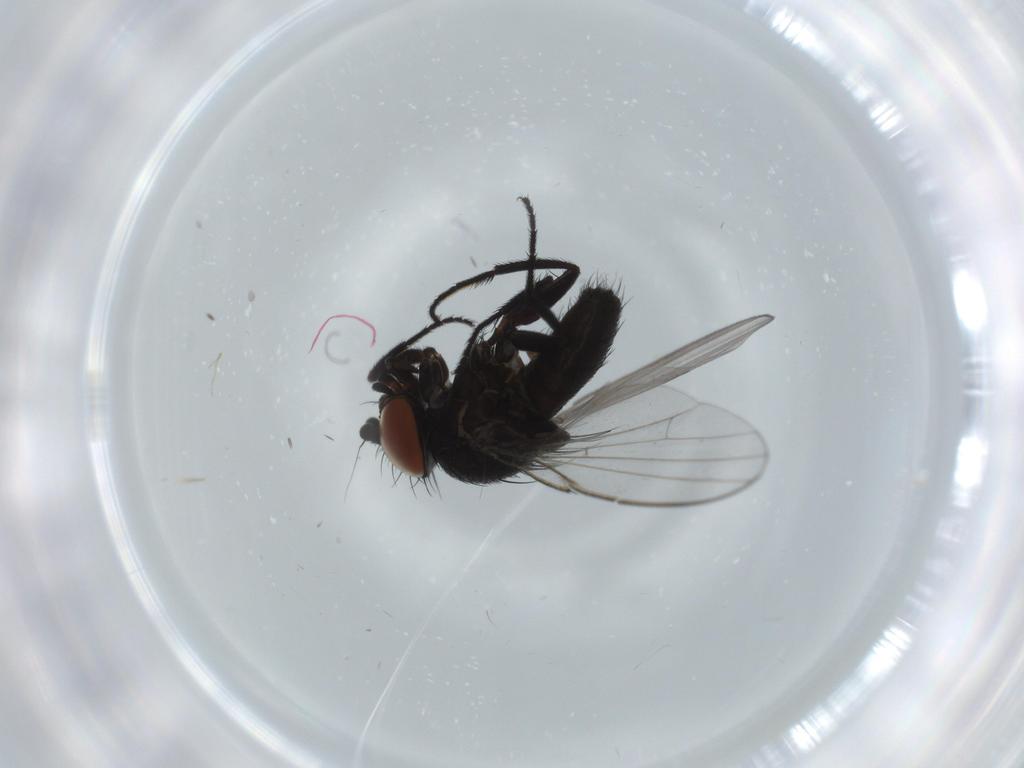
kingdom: Animalia
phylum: Arthropoda
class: Insecta
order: Diptera
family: Milichiidae
